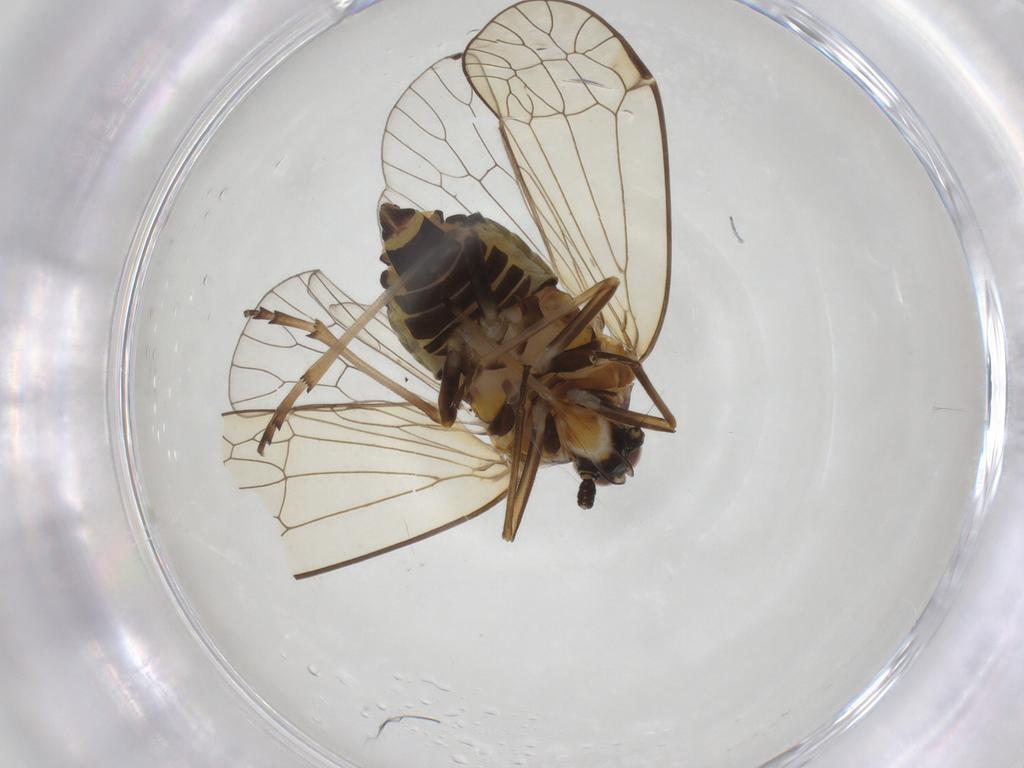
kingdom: Animalia
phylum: Arthropoda
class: Insecta
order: Hemiptera
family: Kinnaridae
